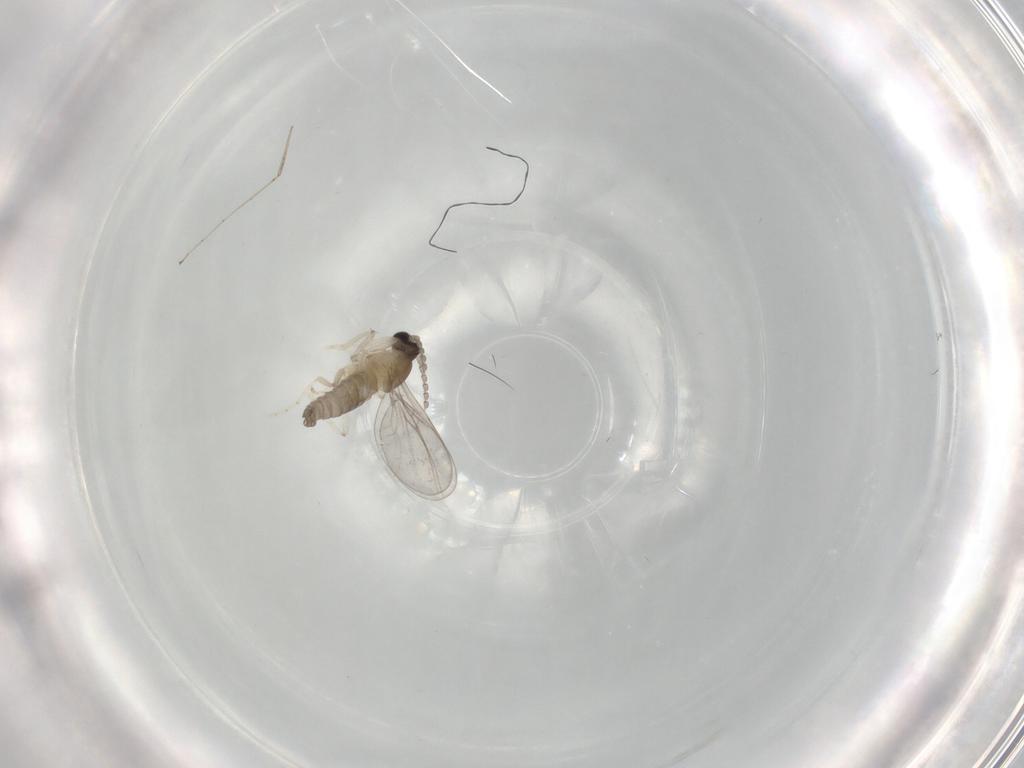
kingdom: Animalia
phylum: Arthropoda
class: Insecta
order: Diptera
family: Cecidomyiidae
